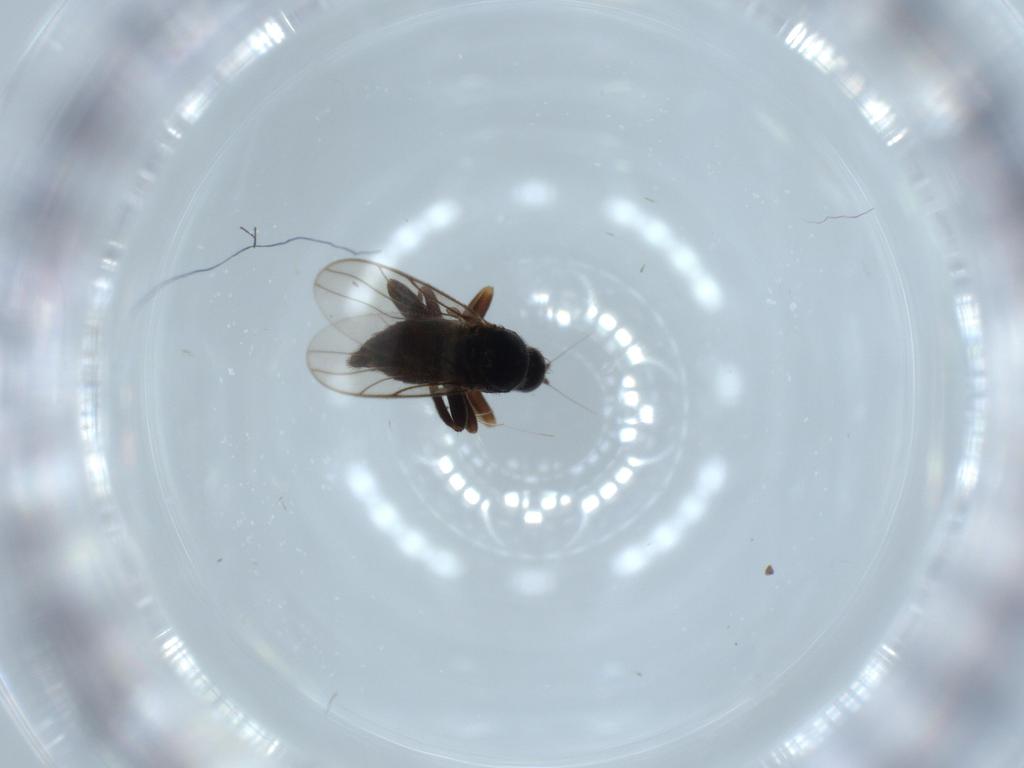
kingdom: Animalia
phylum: Arthropoda
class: Insecta
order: Diptera
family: Hybotidae
